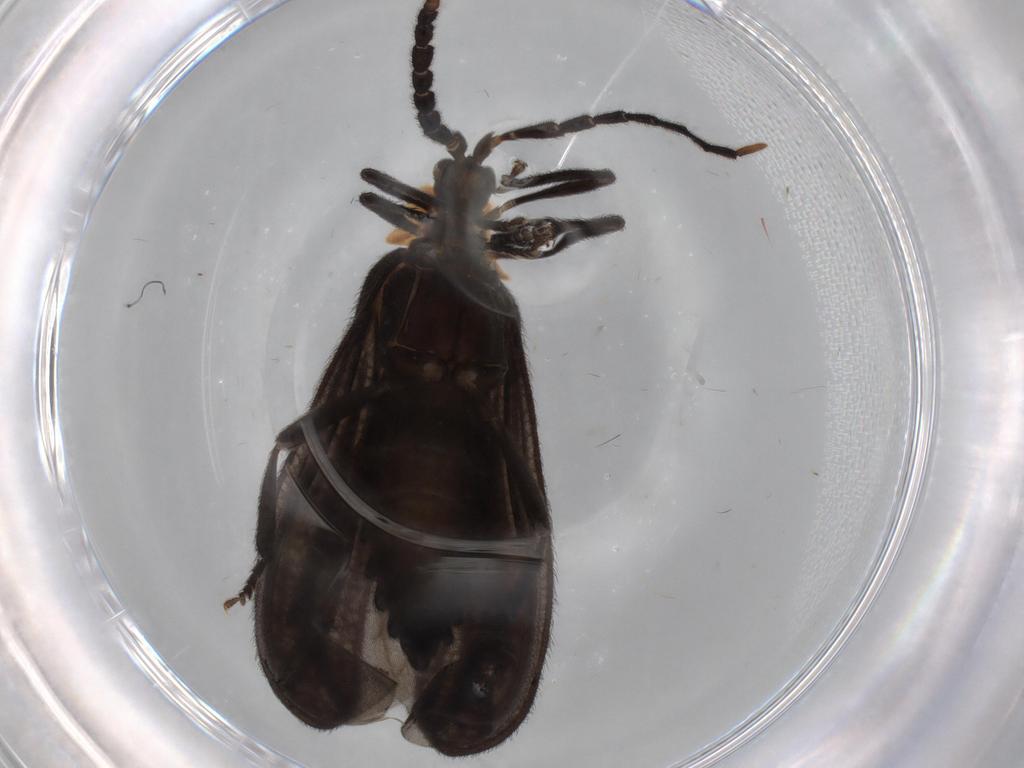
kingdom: Animalia
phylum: Arthropoda
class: Insecta
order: Coleoptera
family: Lycidae
